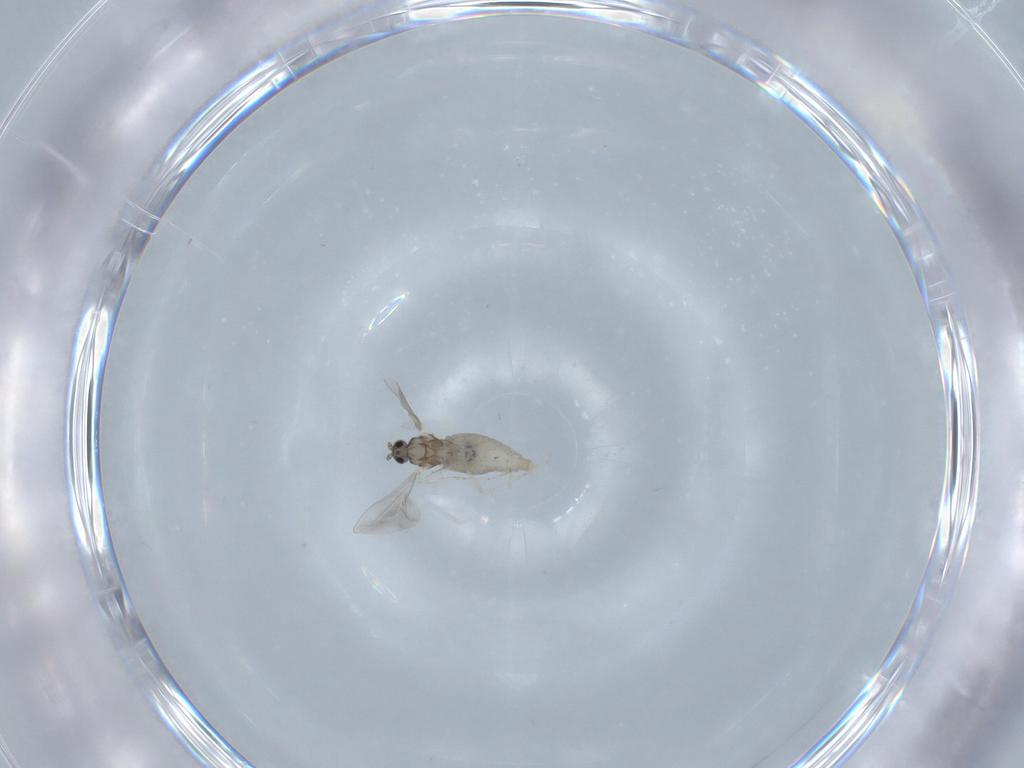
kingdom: Animalia
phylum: Arthropoda
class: Insecta
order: Diptera
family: Cecidomyiidae
